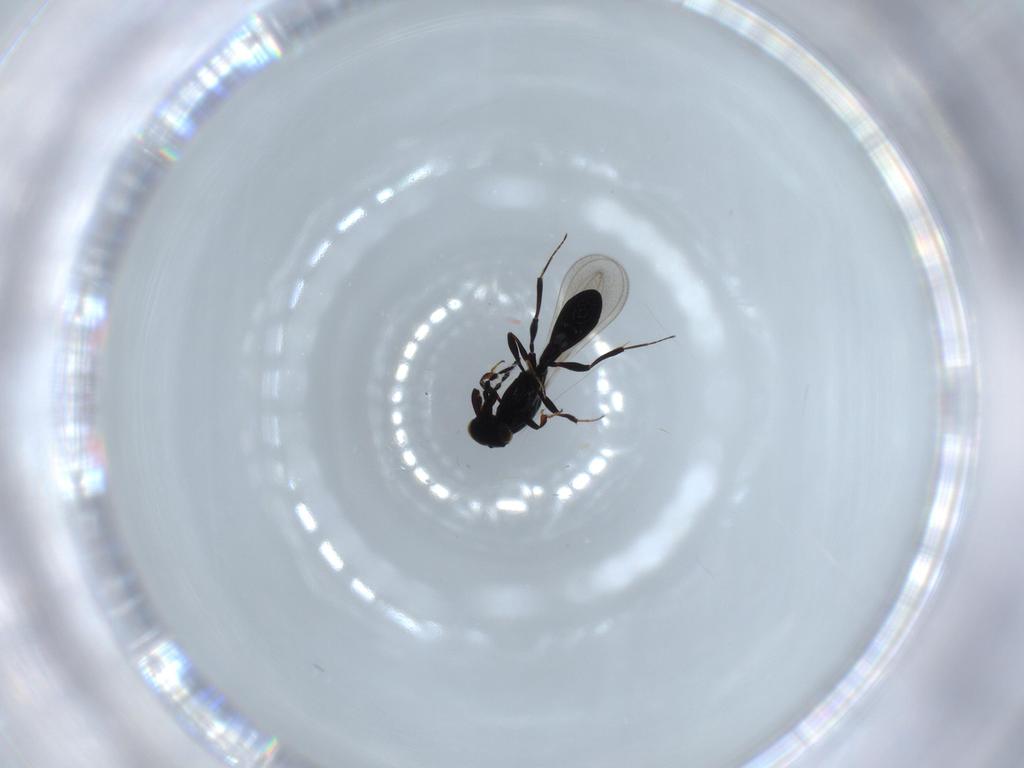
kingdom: Animalia
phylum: Arthropoda
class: Insecta
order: Hymenoptera
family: Platygastridae
